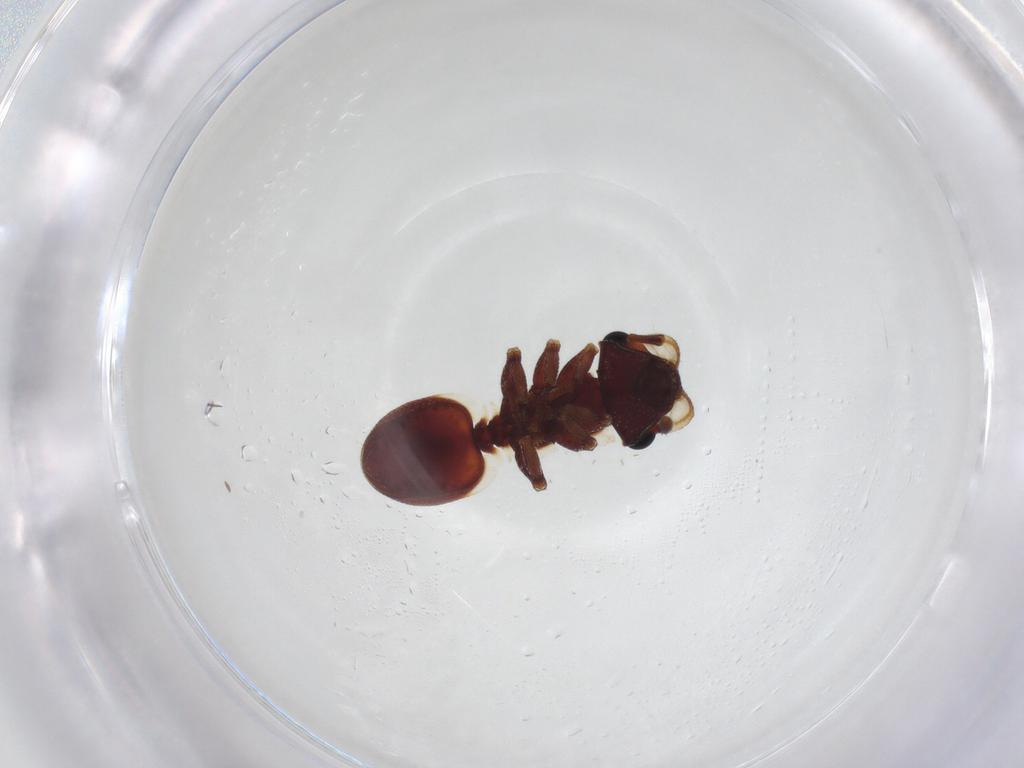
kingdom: Animalia
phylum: Arthropoda
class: Insecta
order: Hymenoptera
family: Formicidae
